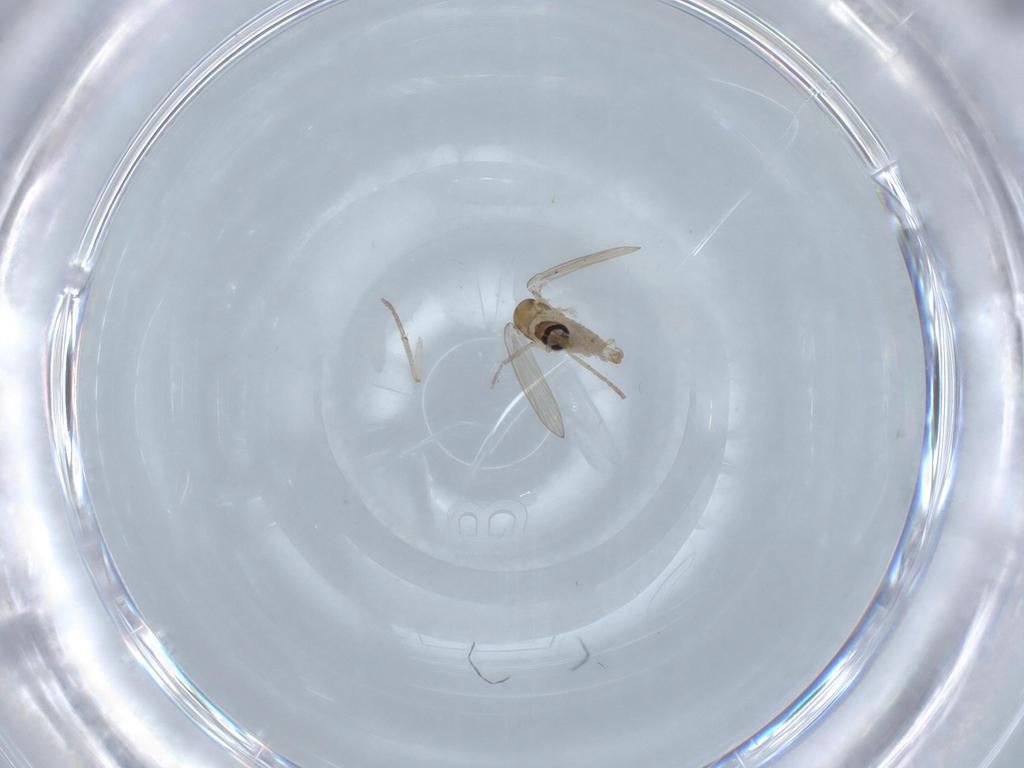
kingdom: Animalia
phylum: Arthropoda
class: Insecta
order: Diptera
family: Psychodidae
